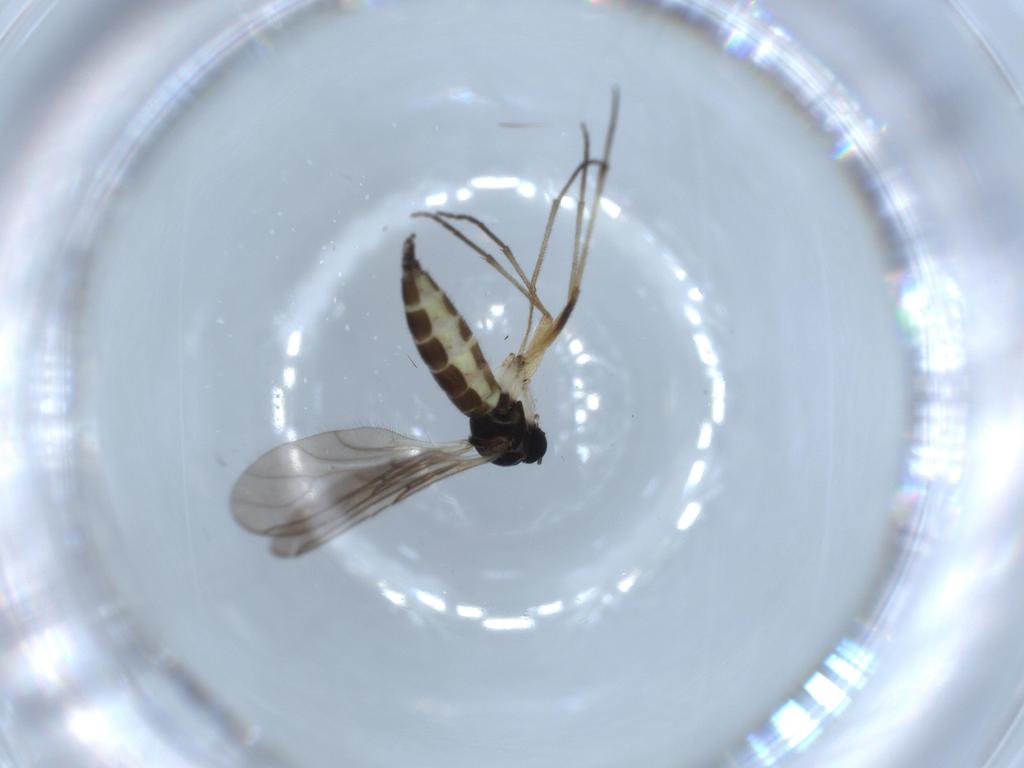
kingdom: Animalia
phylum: Arthropoda
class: Insecta
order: Diptera
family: Sciaridae
